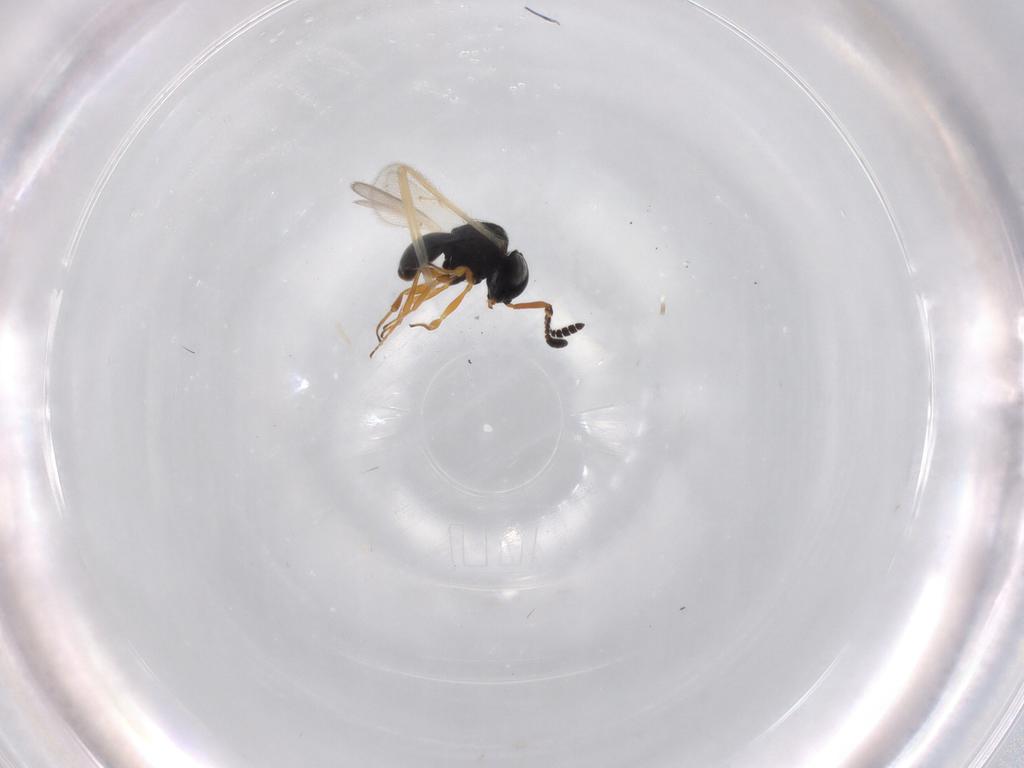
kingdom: Animalia
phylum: Arthropoda
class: Insecta
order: Hymenoptera
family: Scelionidae
